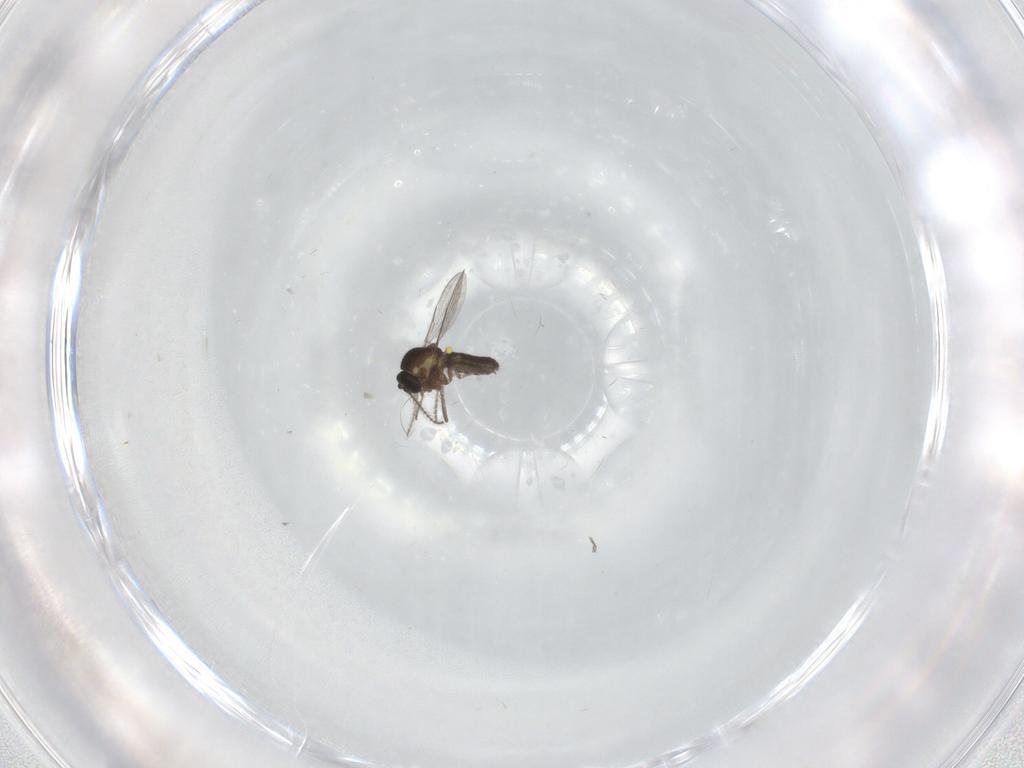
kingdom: Animalia
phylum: Arthropoda
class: Insecta
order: Diptera
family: Ceratopogonidae
